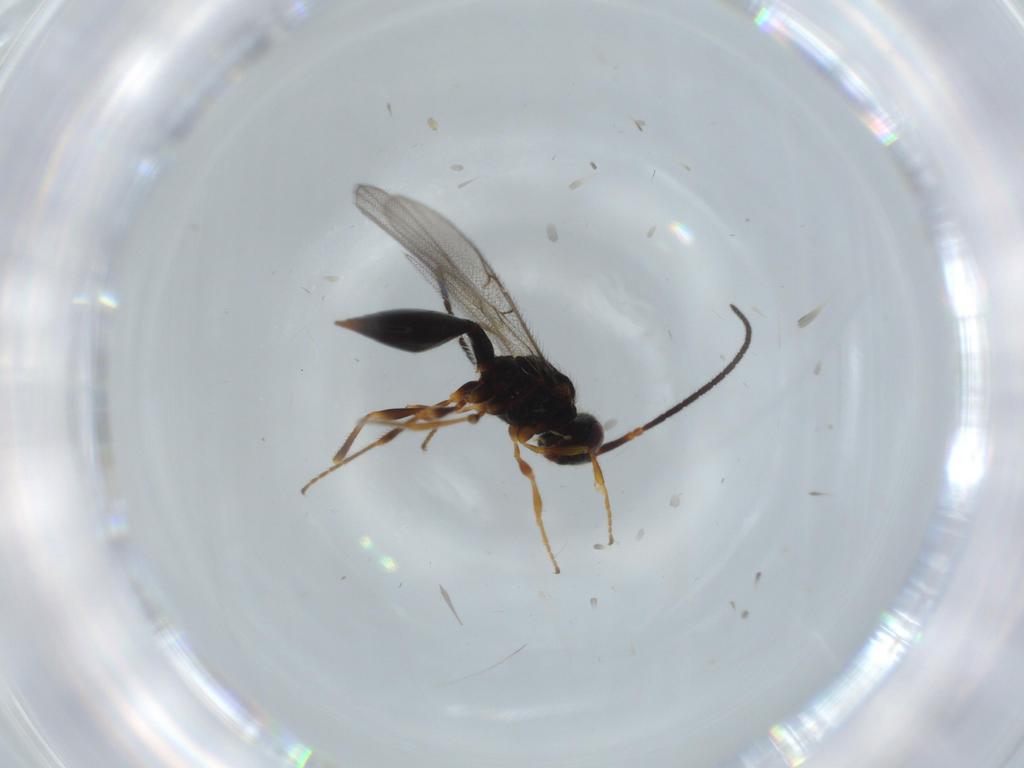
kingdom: Animalia
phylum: Arthropoda
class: Insecta
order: Hymenoptera
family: Diapriidae
